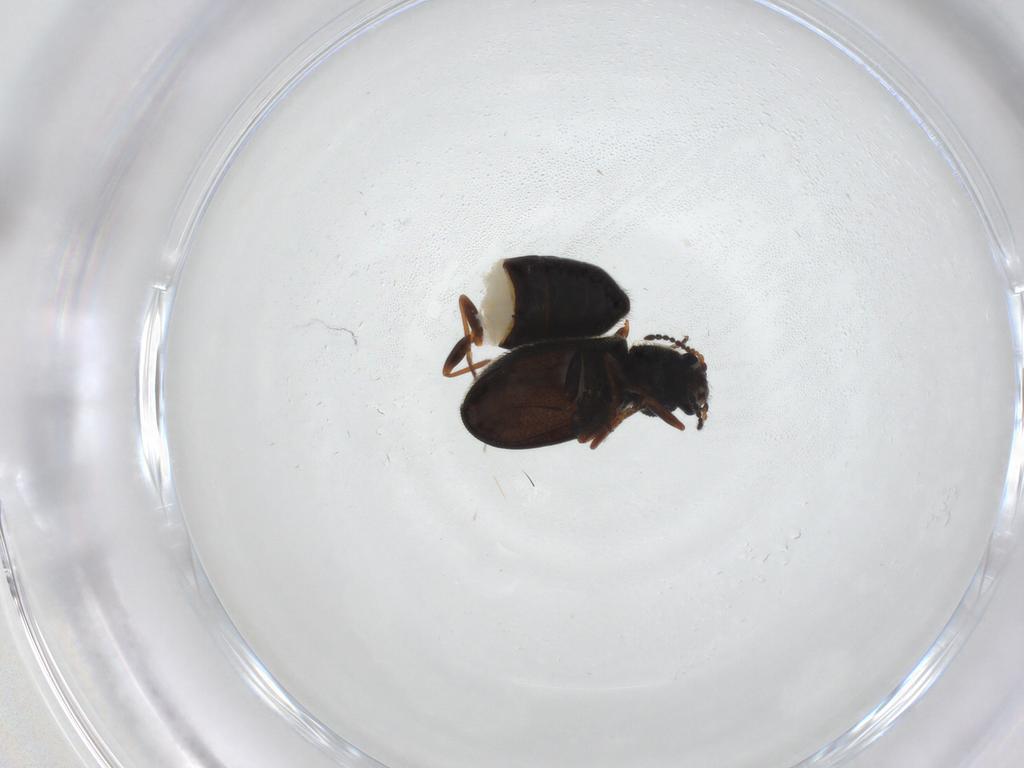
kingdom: Animalia
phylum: Arthropoda
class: Insecta
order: Coleoptera
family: Melyridae
